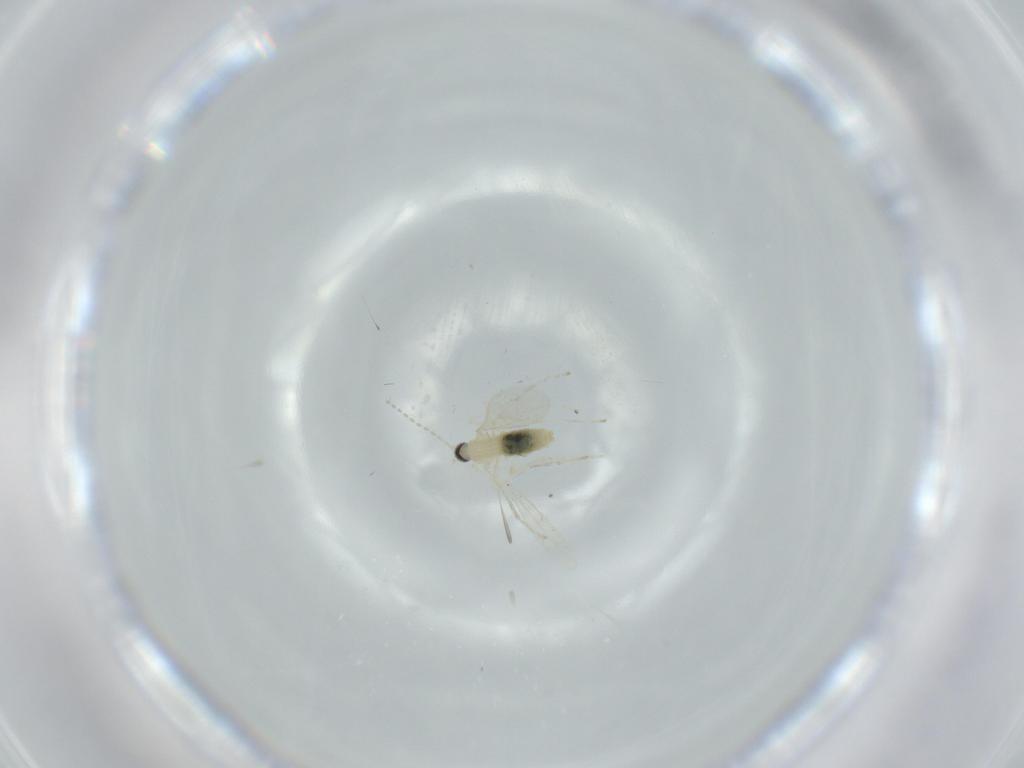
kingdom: Animalia
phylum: Arthropoda
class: Insecta
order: Diptera
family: Cecidomyiidae
